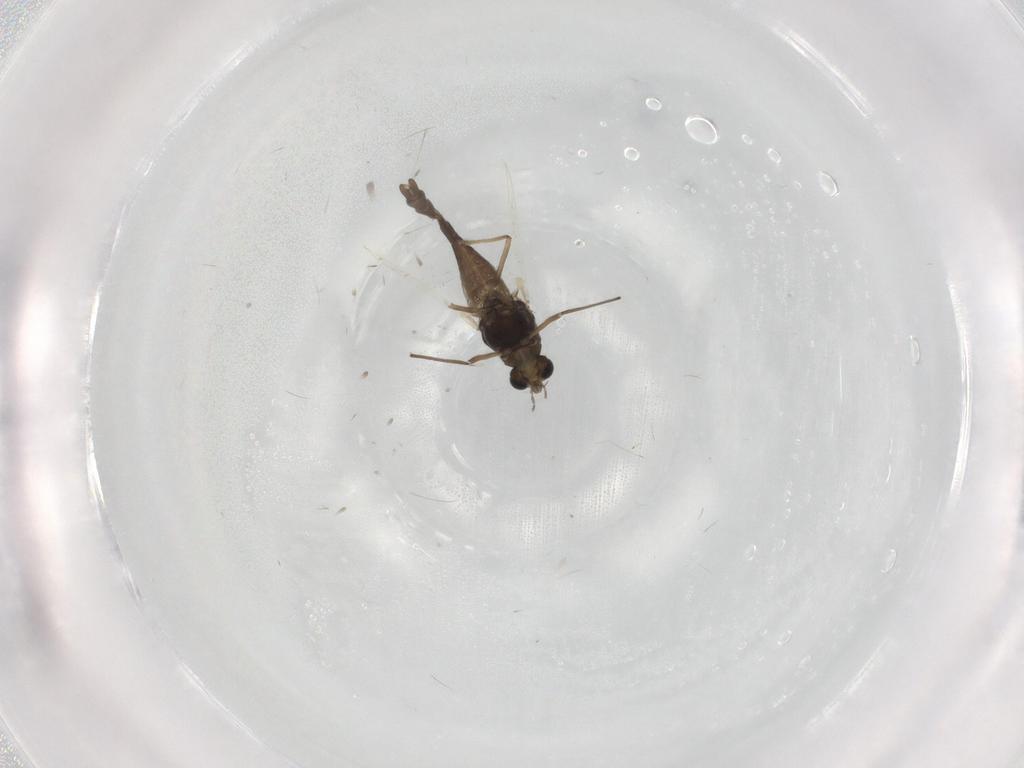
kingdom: Animalia
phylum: Arthropoda
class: Insecta
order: Diptera
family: Chironomidae
